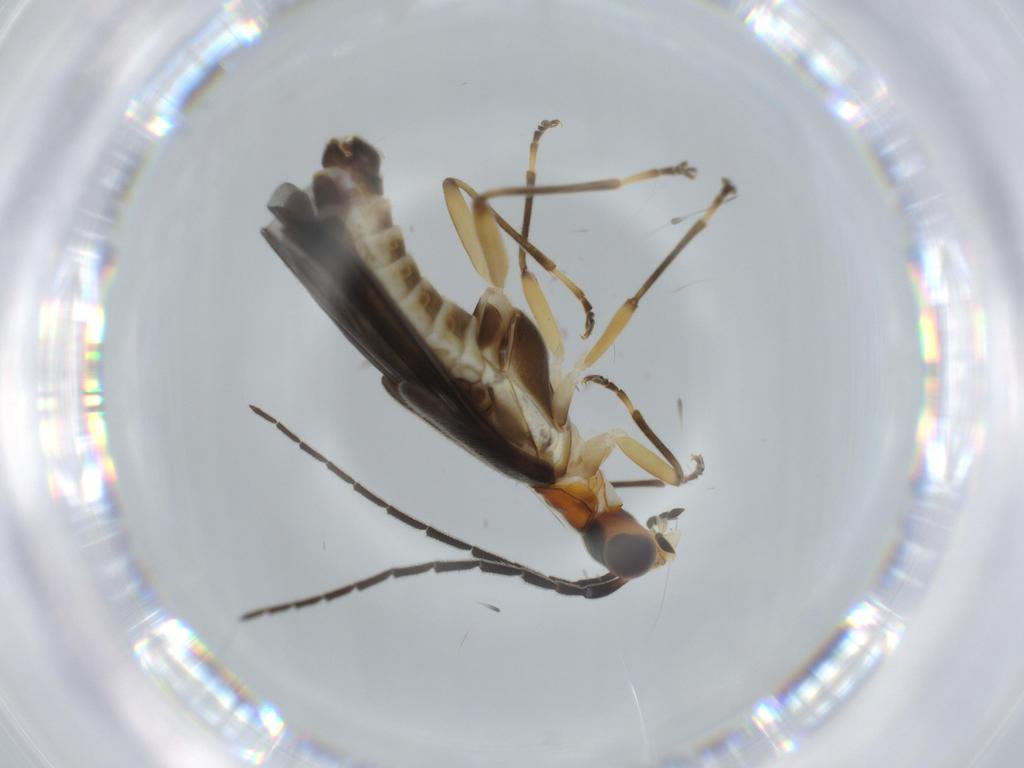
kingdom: Animalia
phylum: Arthropoda
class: Insecta
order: Coleoptera
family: Cantharidae
